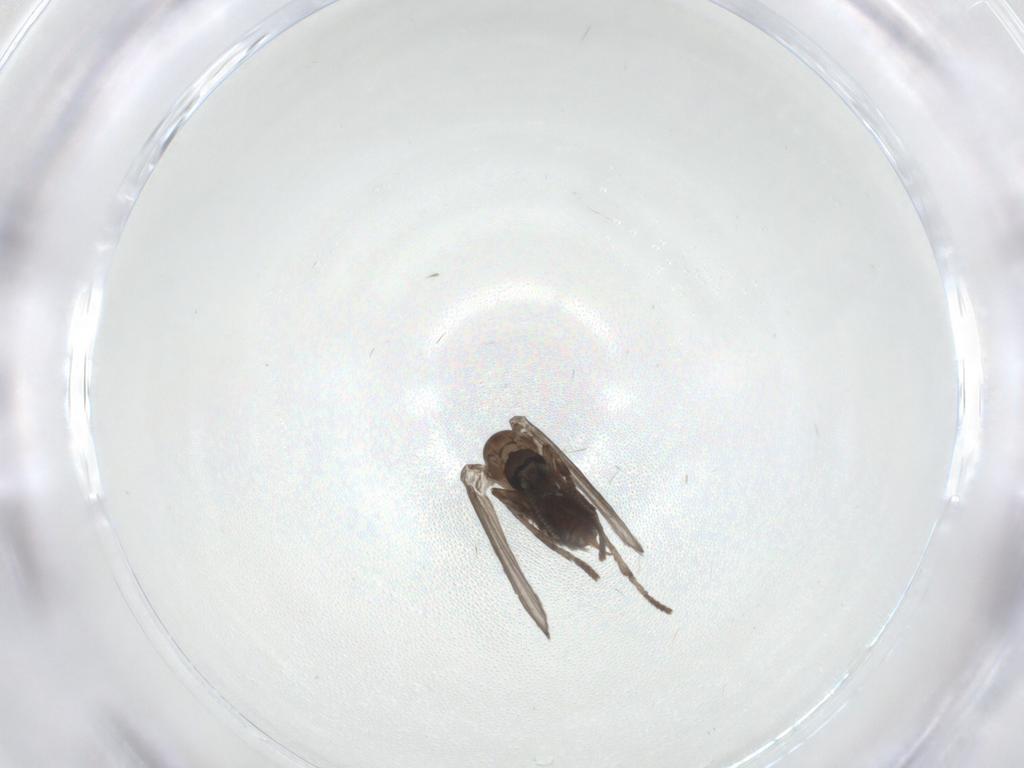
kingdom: Animalia
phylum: Arthropoda
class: Insecta
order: Diptera
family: Psychodidae
